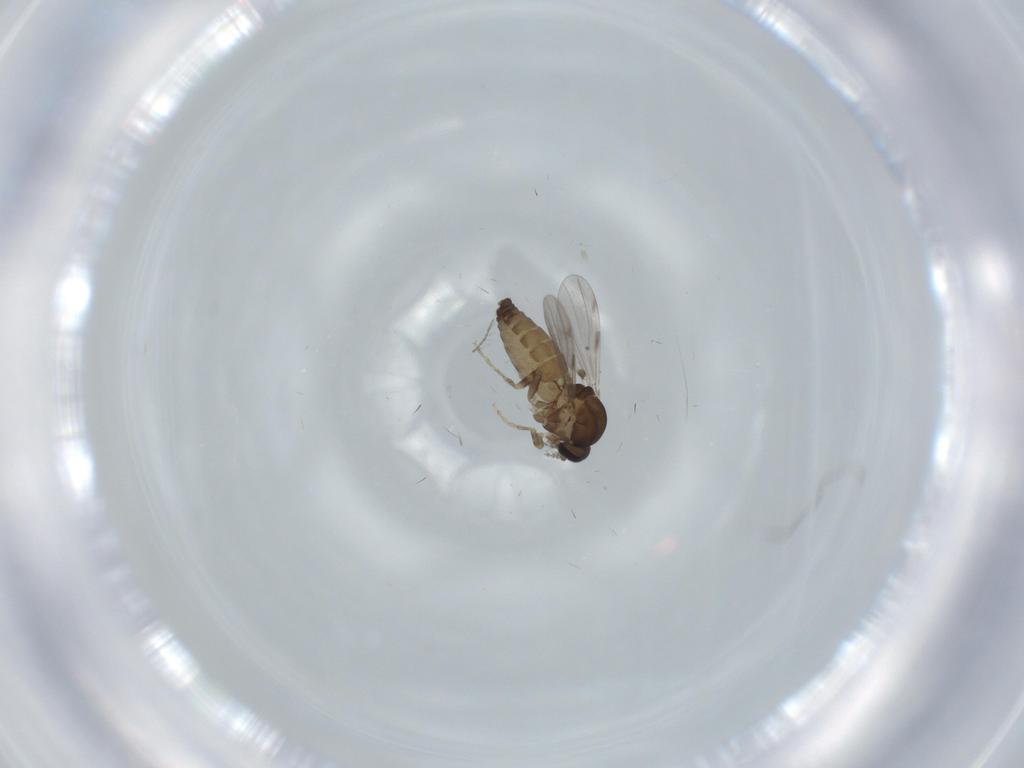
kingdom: Animalia
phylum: Arthropoda
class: Insecta
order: Diptera
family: Ceratopogonidae
